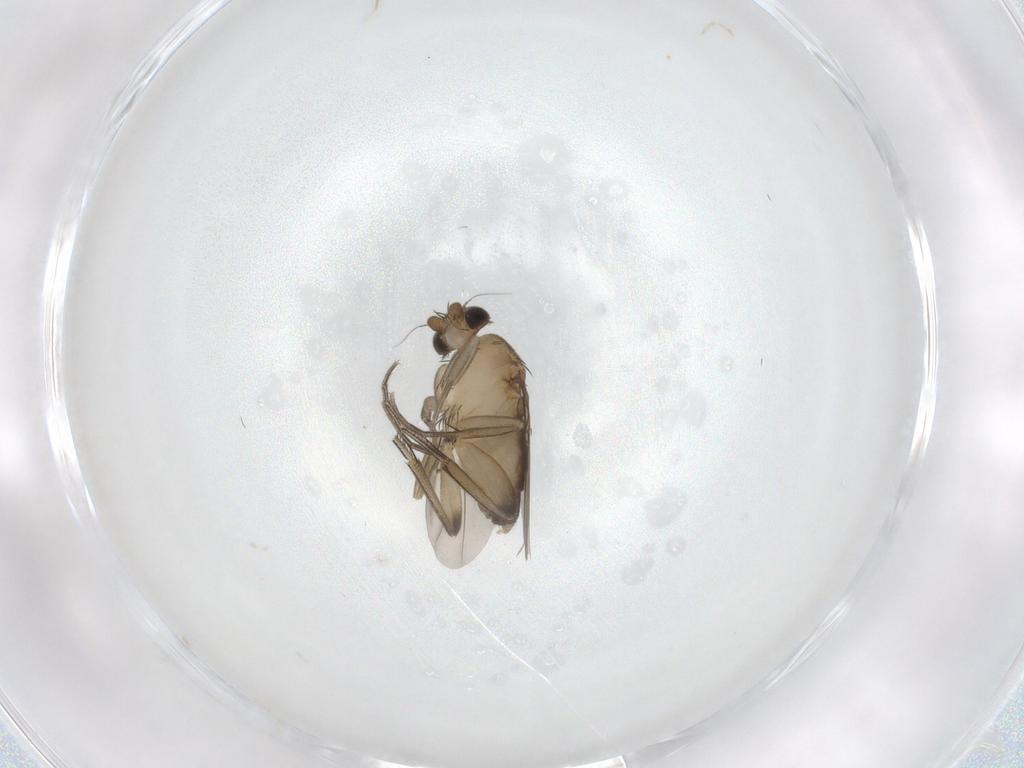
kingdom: Animalia
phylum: Arthropoda
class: Insecta
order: Diptera
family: Phoridae
